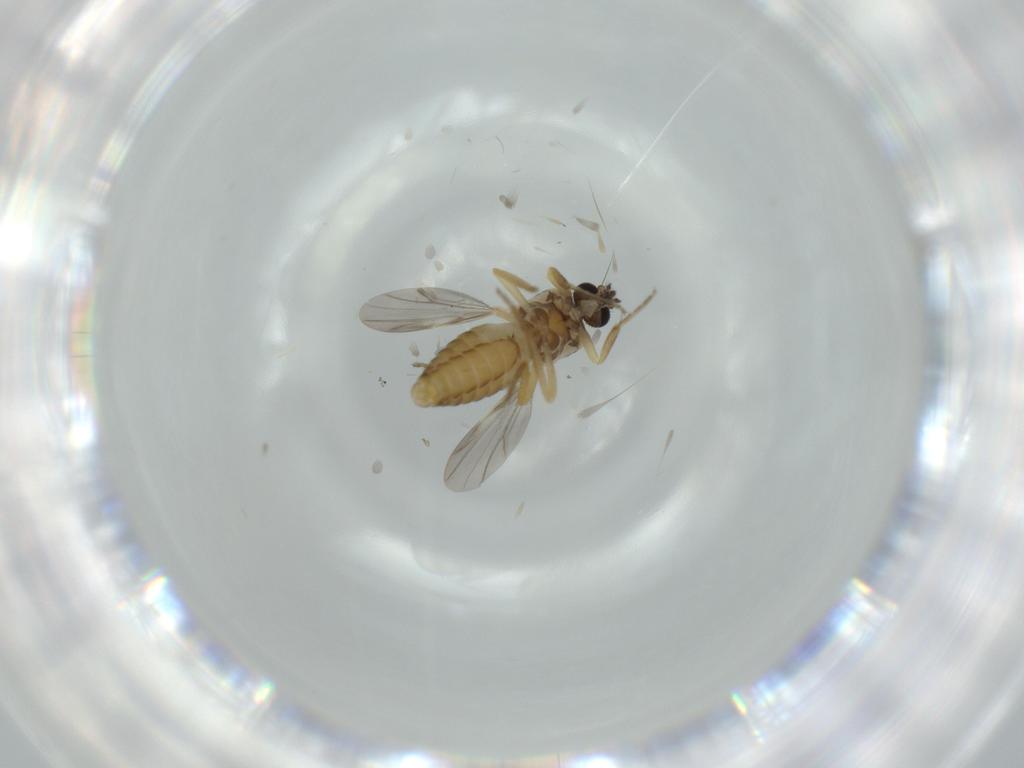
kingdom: Animalia
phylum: Arthropoda
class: Insecta
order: Diptera
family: Ceratopogonidae
